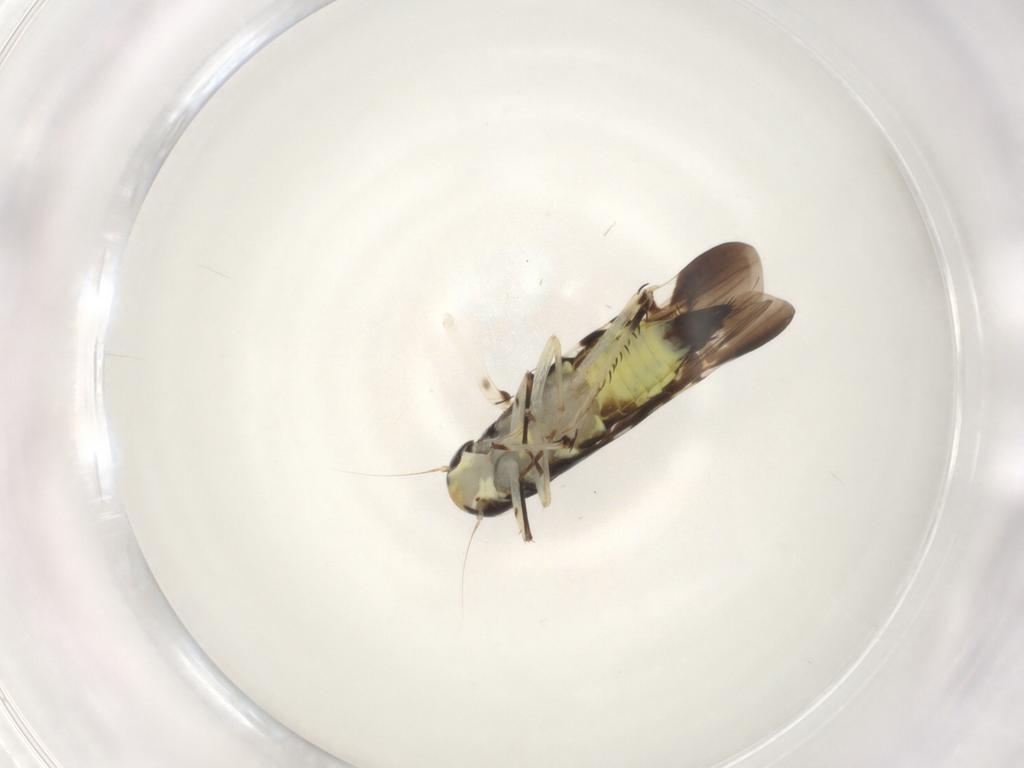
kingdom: Animalia
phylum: Arthropoda
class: Insecta
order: Hemiptera
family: Cicadellidae
